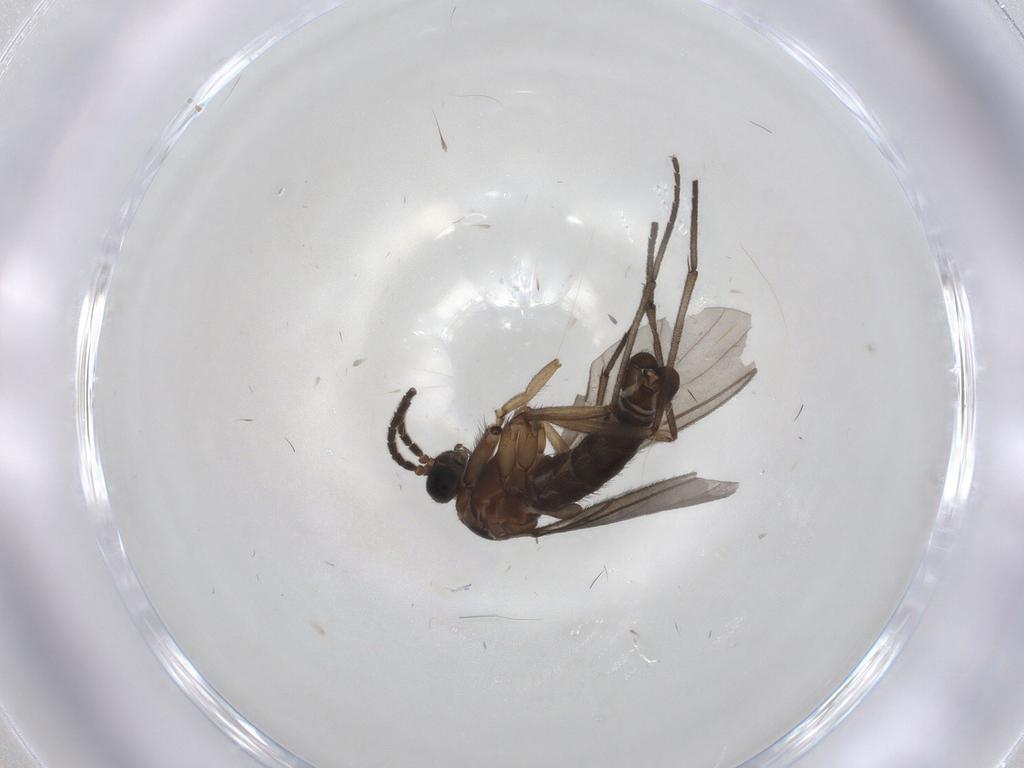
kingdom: Animalia
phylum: Arthropoda
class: Insecta
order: Diptera
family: Sciaridae
